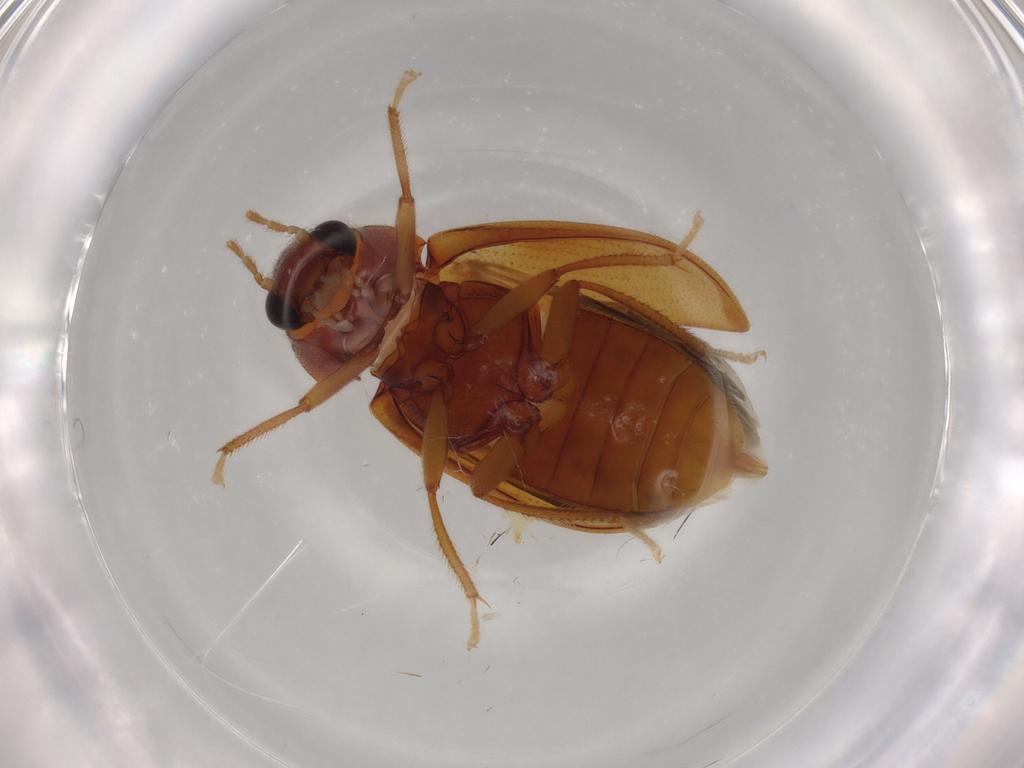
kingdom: Animalia
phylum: Arthropoda
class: Insecta
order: Coleoptera
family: Ptilodactylidae
